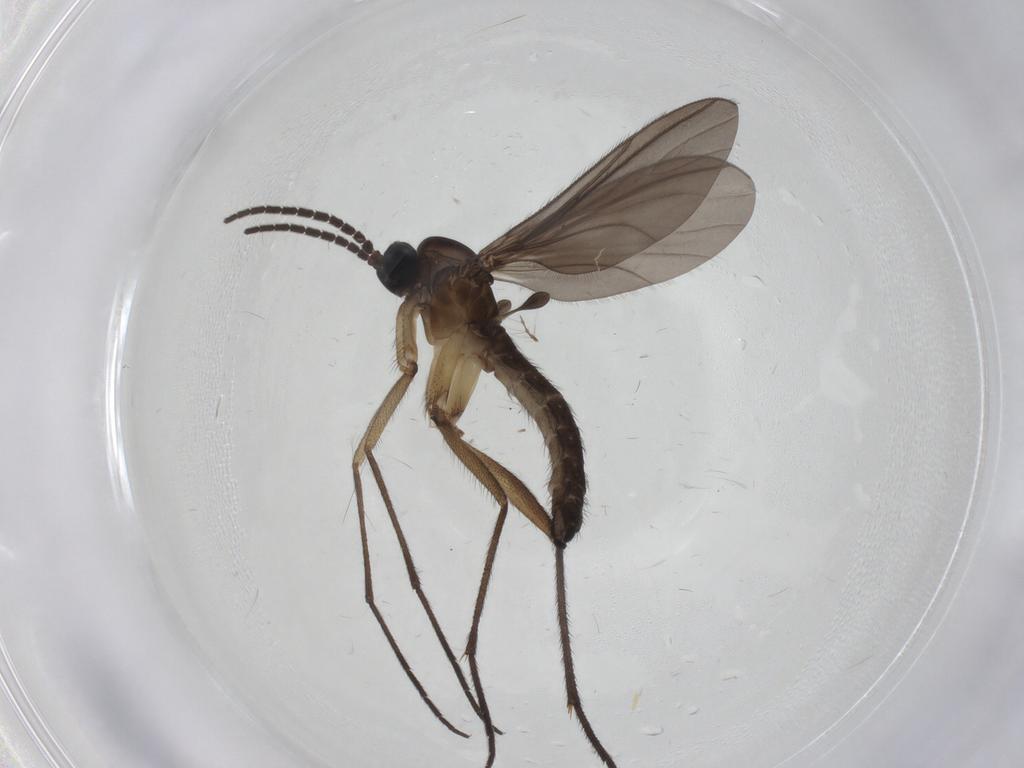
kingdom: Animalia
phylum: Arthropoda
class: Insecta
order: Diptera
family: Sciaridae
